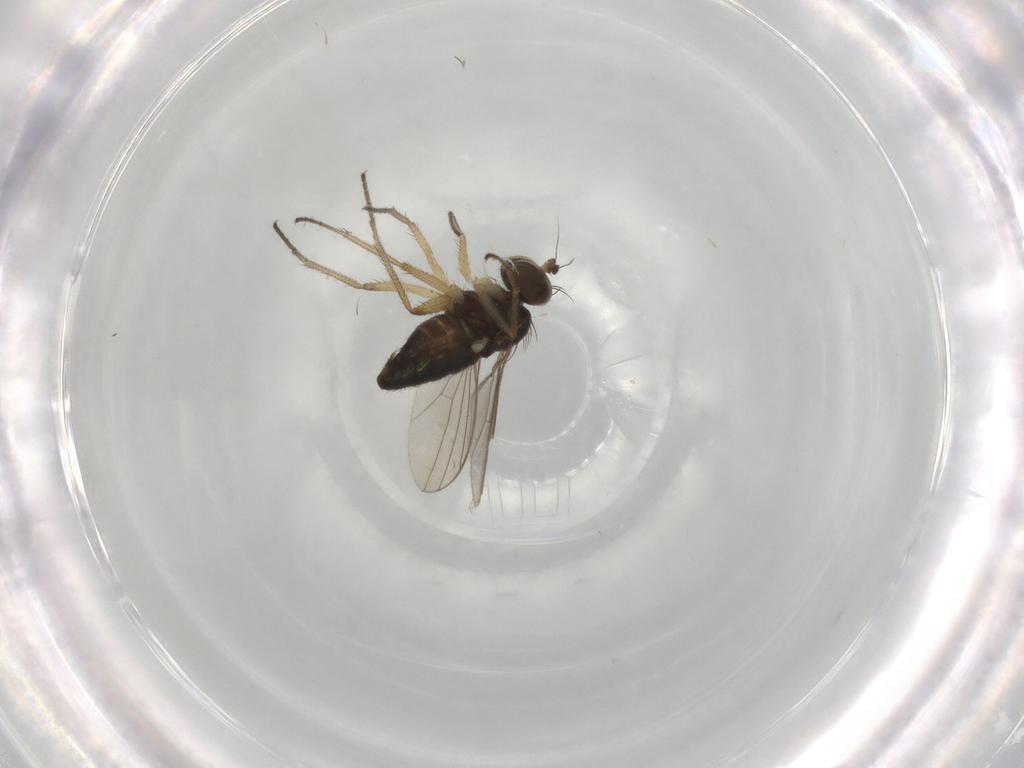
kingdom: Animalia
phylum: Arthropoda
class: Insecta
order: Diptera
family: Dolichopodidae
